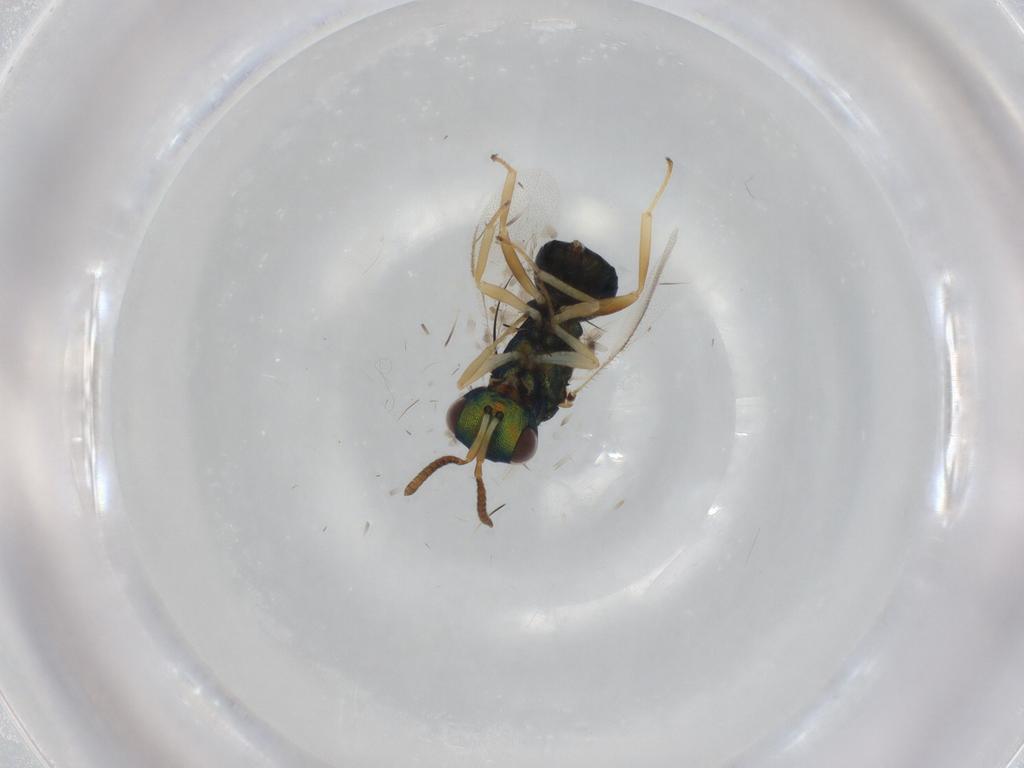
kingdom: Animalia
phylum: Arthropoda
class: Insecta
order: Hymenoptera
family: Pteromalidae
